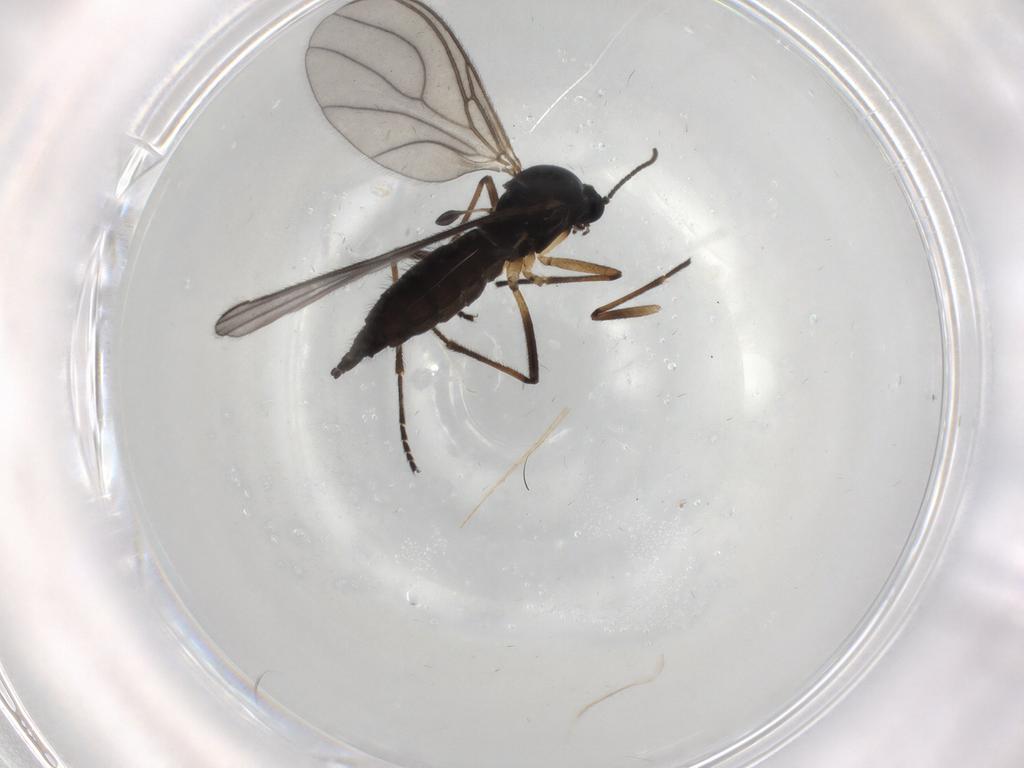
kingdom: Animalia
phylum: Arthropoda
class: Insecta
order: Diptera
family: Sciaridae
